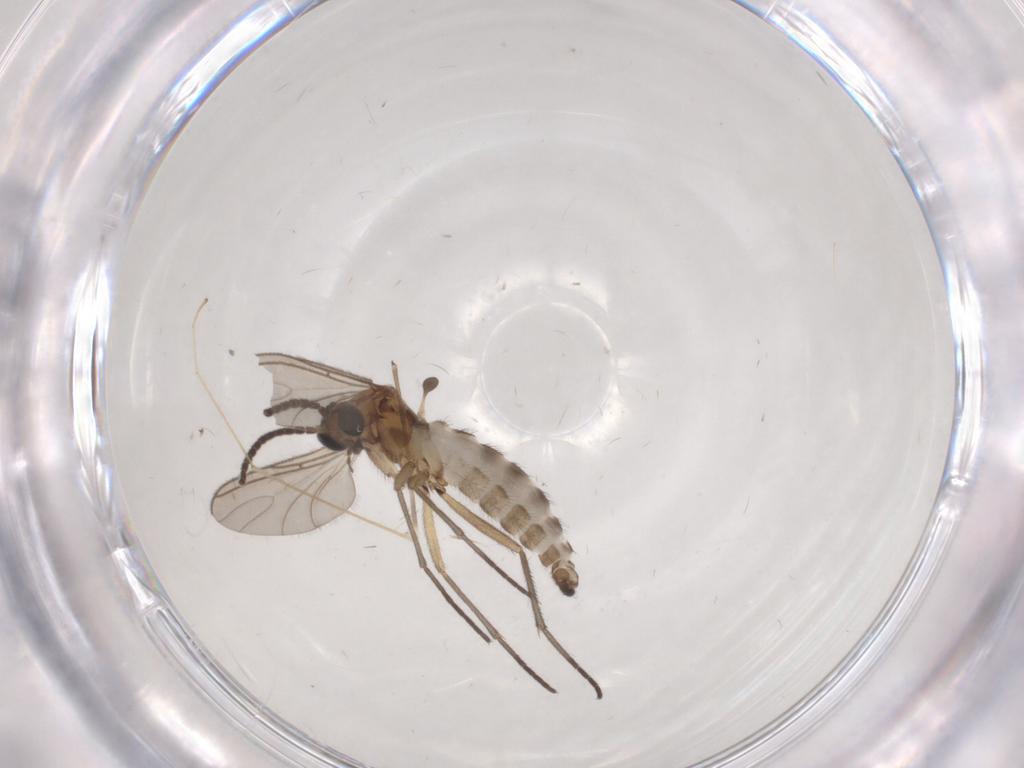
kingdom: Animalia
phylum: Arthropoda
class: Insecta
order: Diptera
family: Sciaridae
